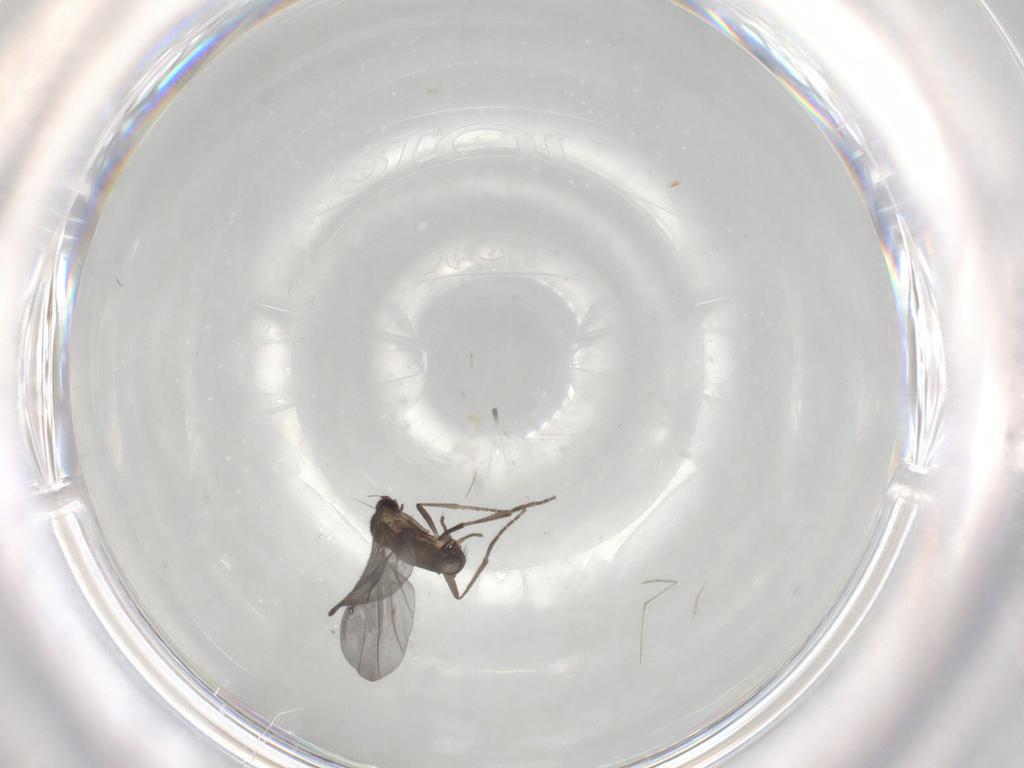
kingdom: Animalia
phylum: Arthropoda
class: Insecta
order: Diptera
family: Phoridae
